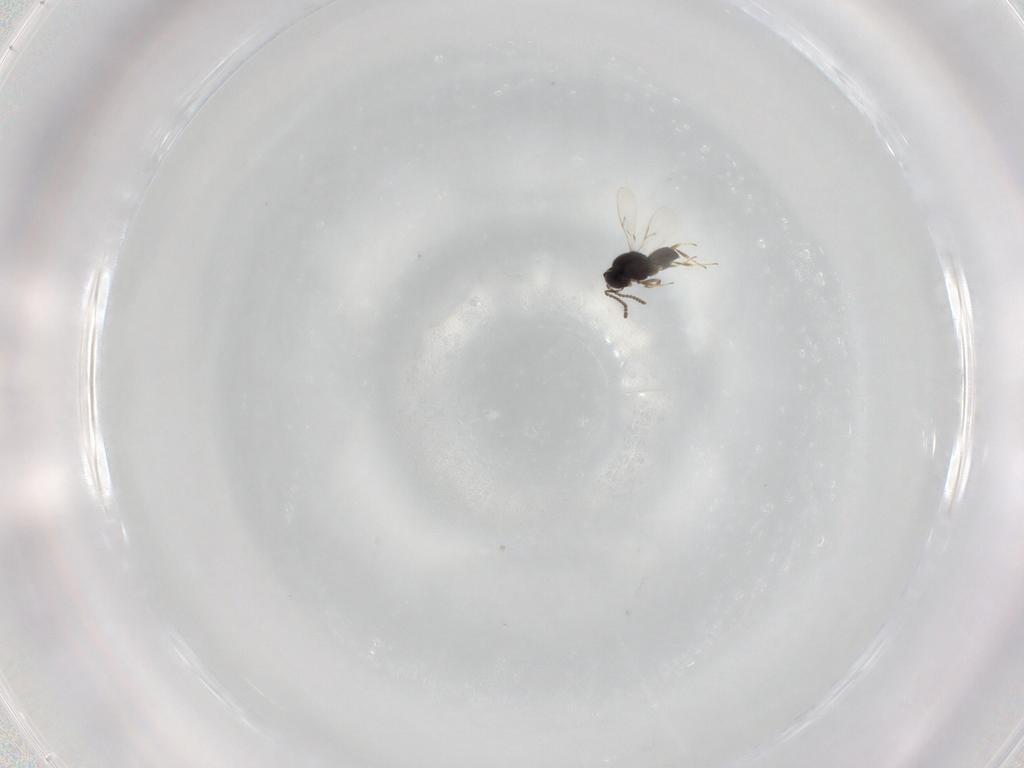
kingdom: Animalia
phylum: Arthropoda
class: Insecta
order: Hymenoptera
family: Scelionidae
